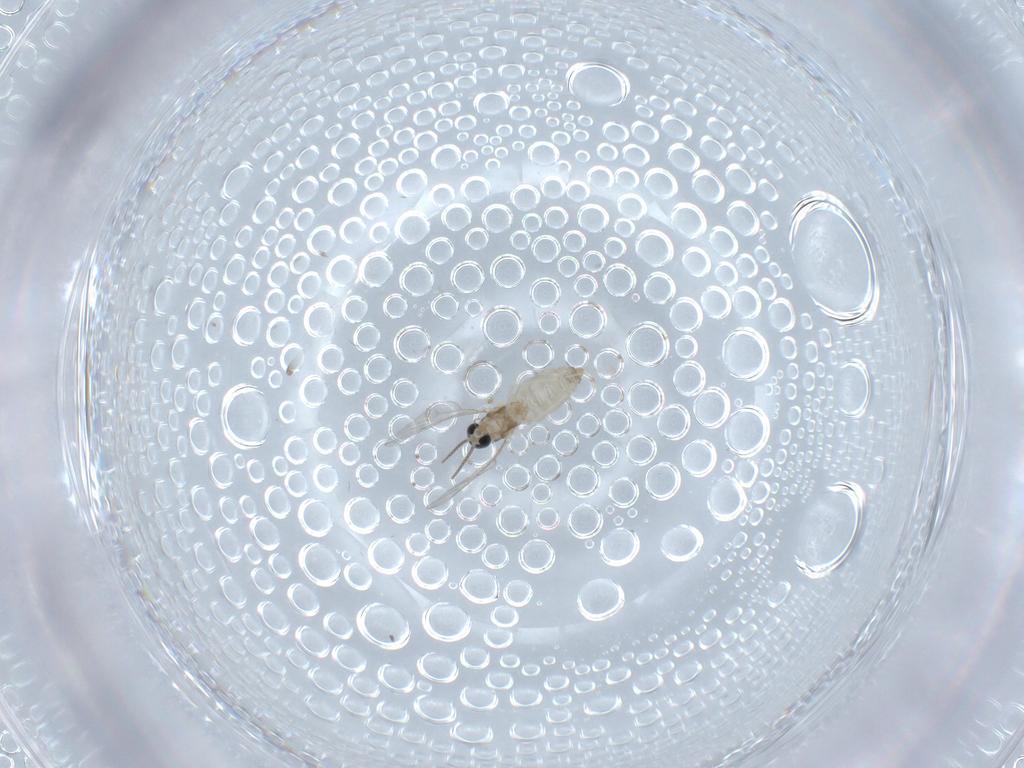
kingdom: Animalia
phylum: Arthropoda
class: Insecta
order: Diptera
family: Cecidomyiidae
